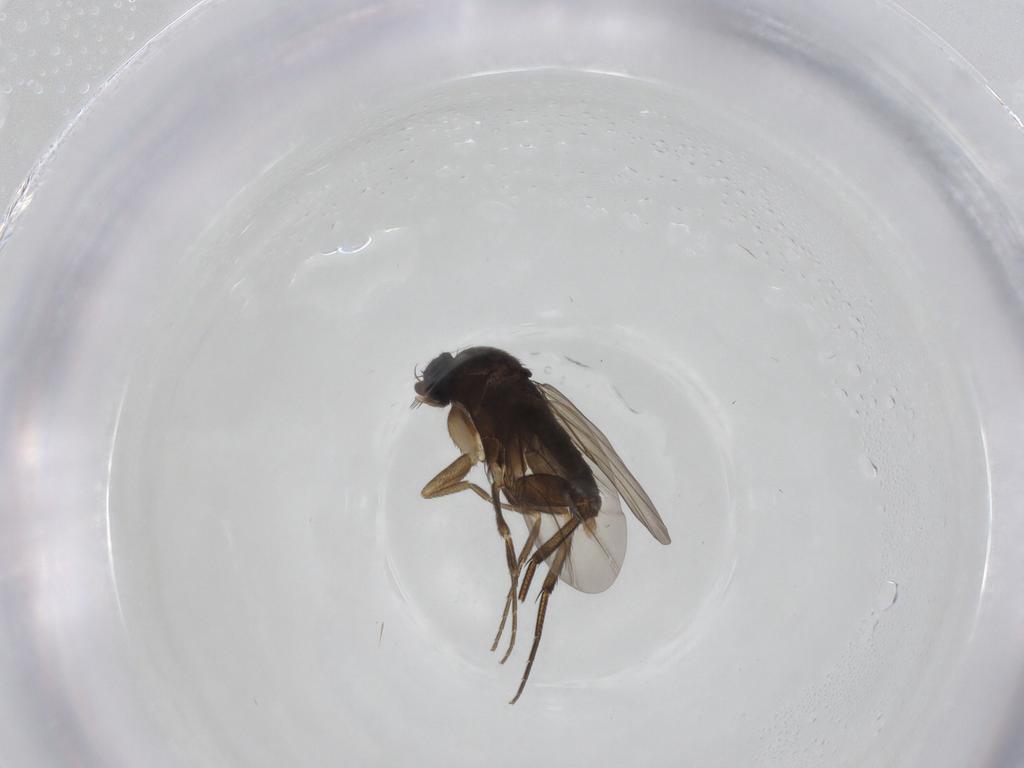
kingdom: Animalia
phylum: Arthropoda
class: Insecta
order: Diptera
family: Phoridae
